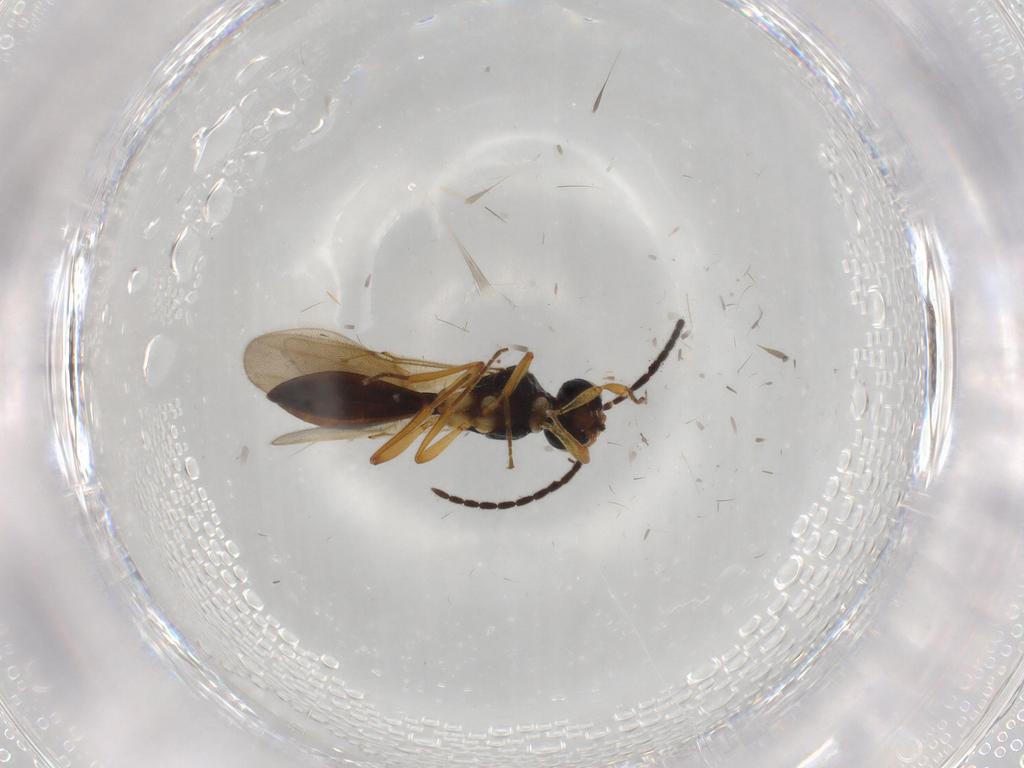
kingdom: Animalia
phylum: Arthropoda
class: Insecta
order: Hymenoptera
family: Scelionidae
